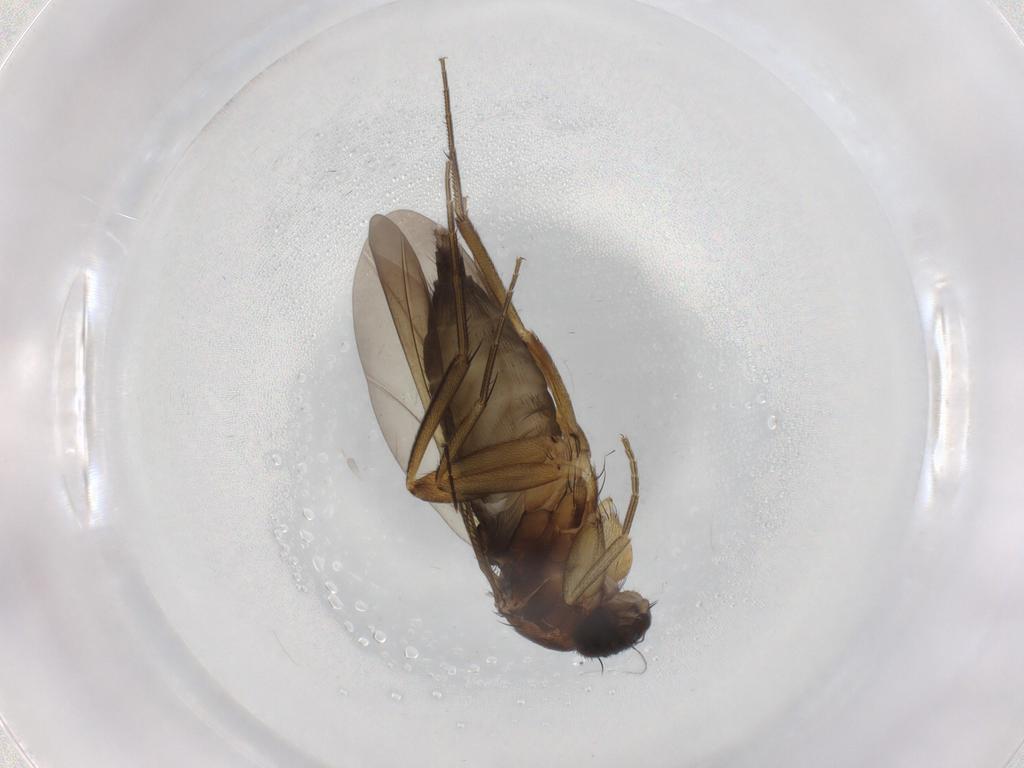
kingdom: Animalia
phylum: Arthropoda
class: Insecta
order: Diptera
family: Phoridae
